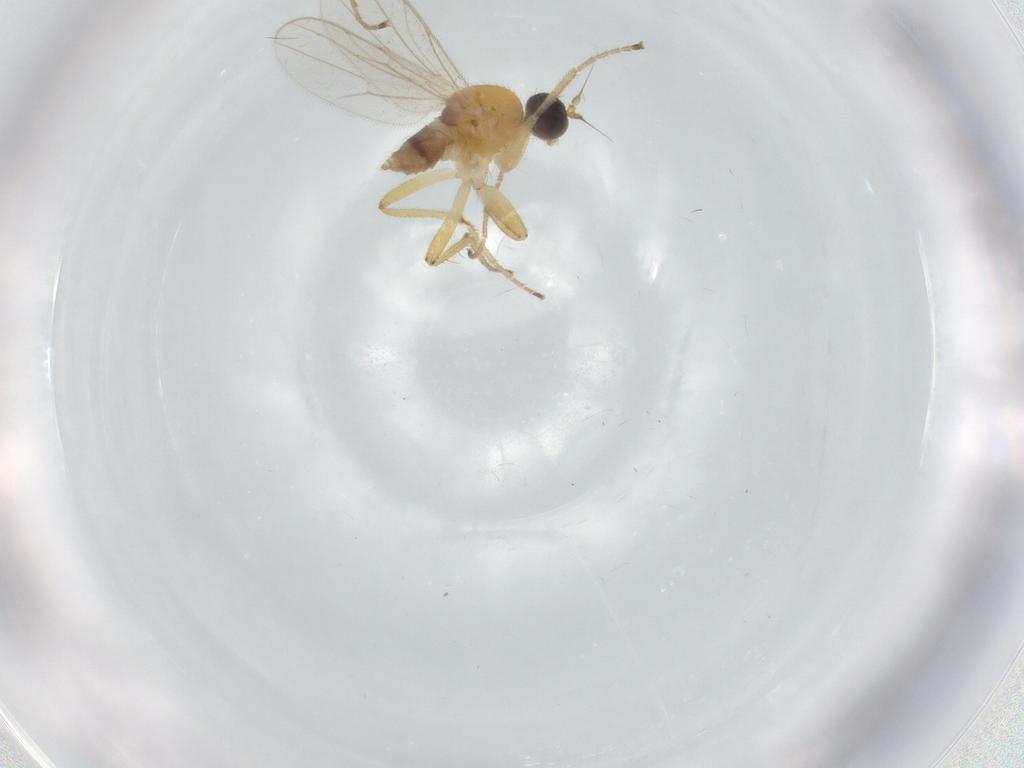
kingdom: Animalia
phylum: Arthropoda
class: Insecta
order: Diptera
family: Hybotidae
